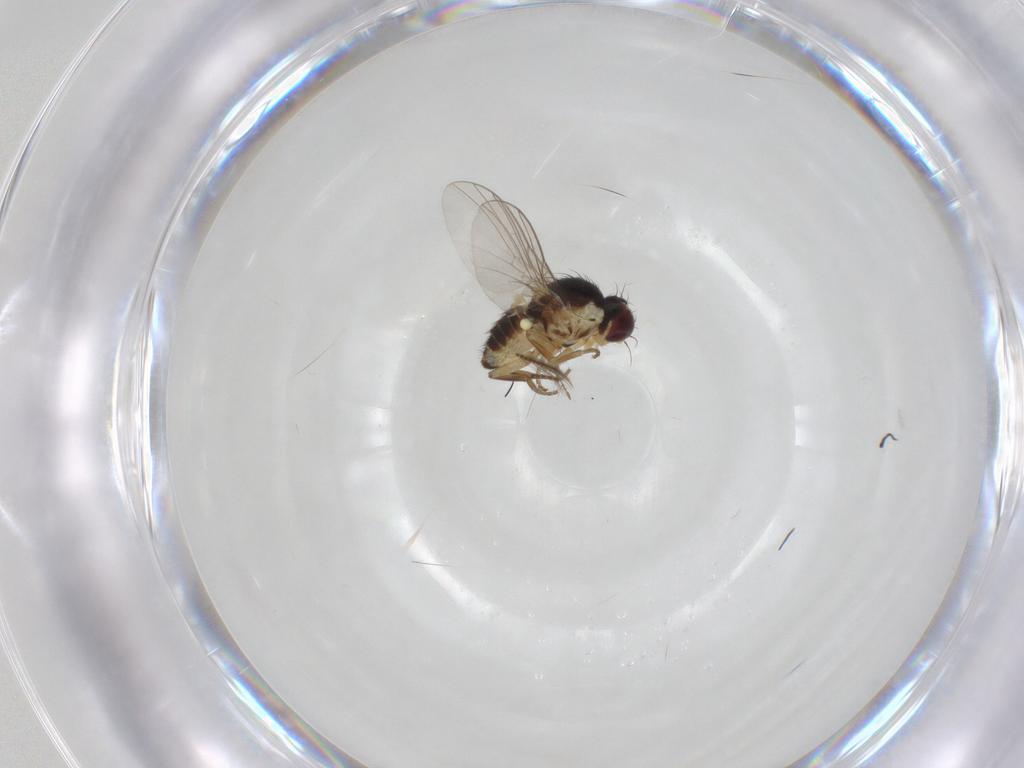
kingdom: Animalia
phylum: Arthropoda
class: Insecta
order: Diptera
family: Agromyzidae
